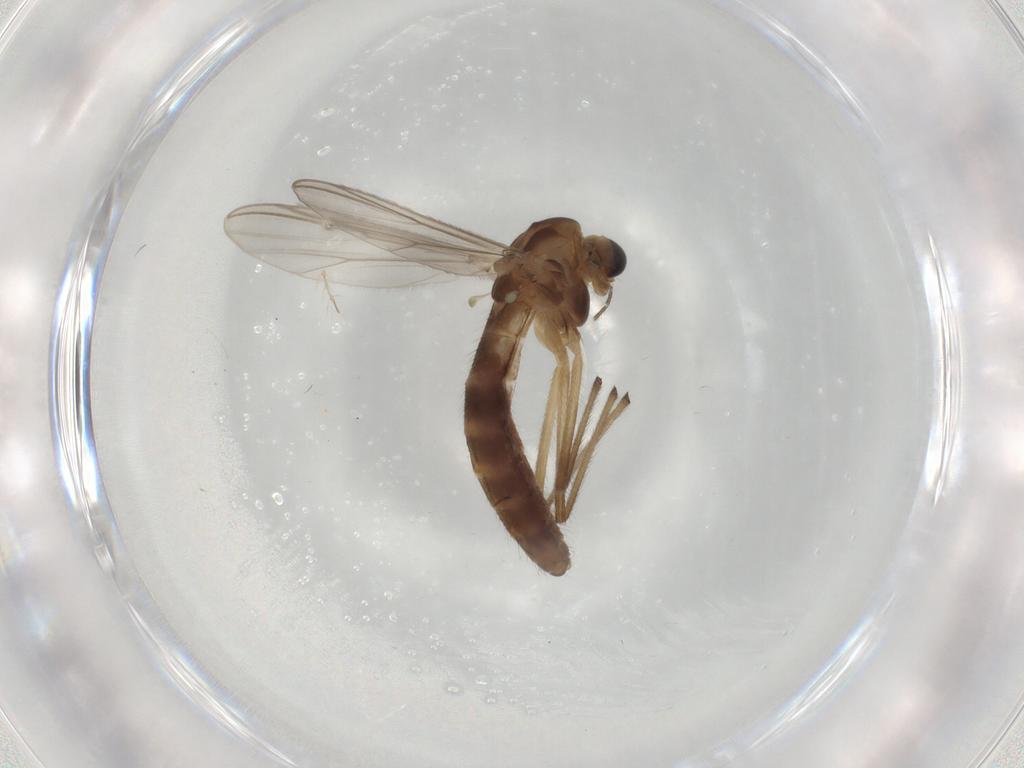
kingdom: Animalia
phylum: Arthropoda
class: Insecta
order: Diptera
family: Chironomidae
